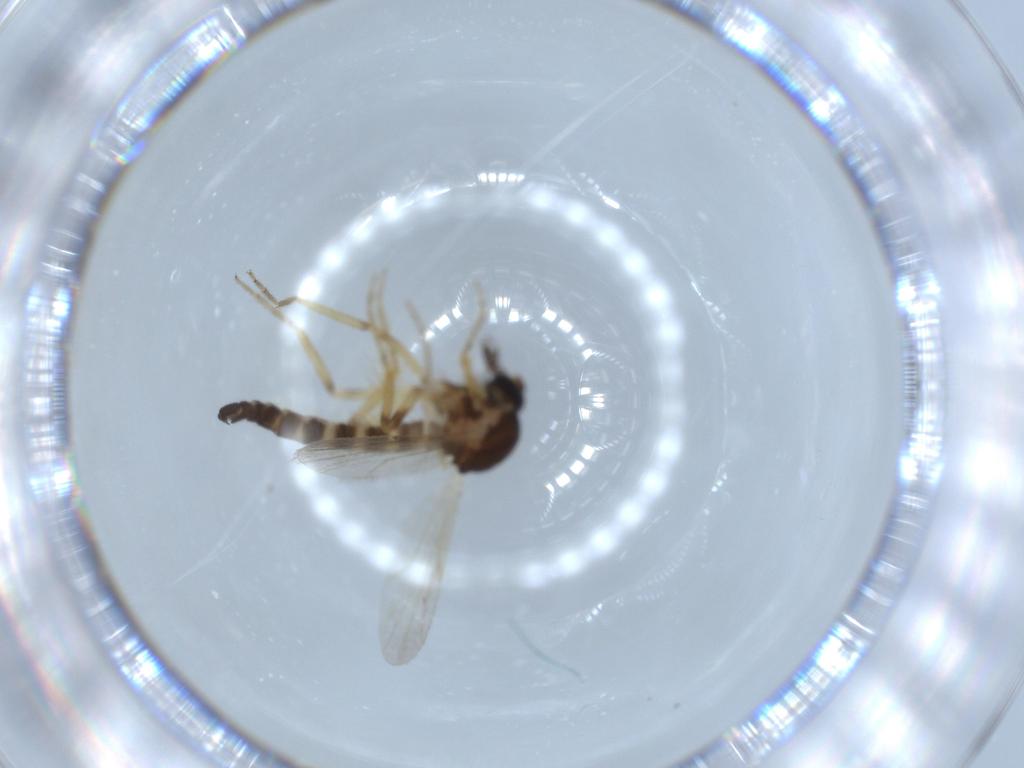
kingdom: Animalia
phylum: Arthropoda
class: Insecta
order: Diptera
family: Ceratopogonidae
